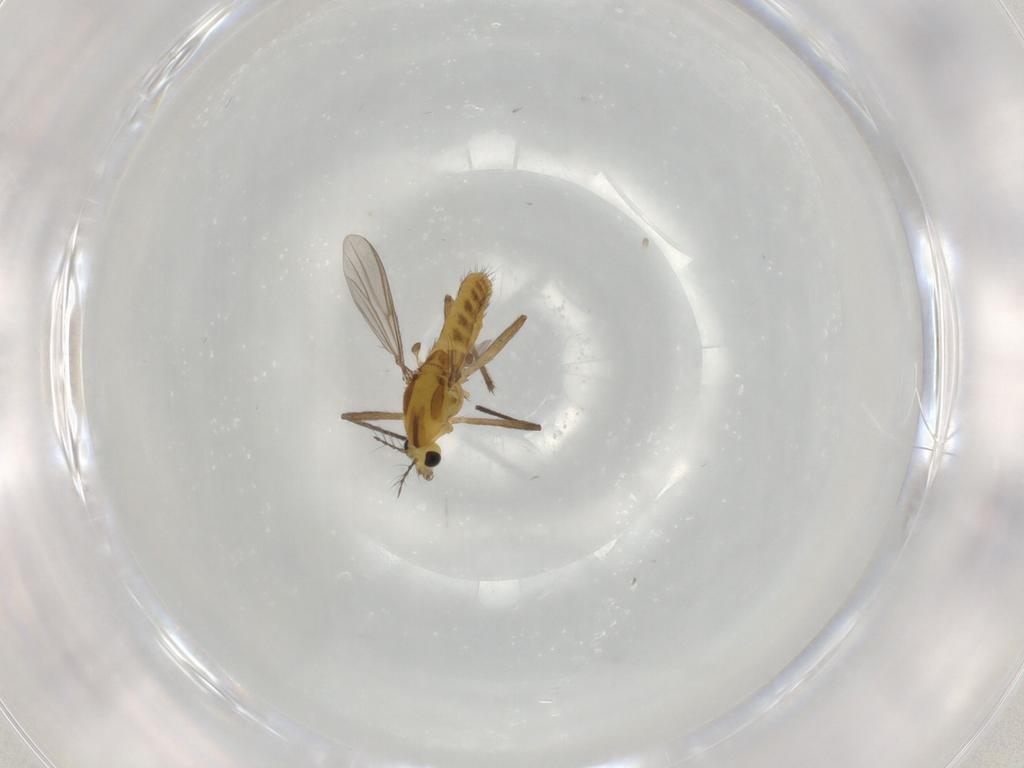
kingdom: Animalia
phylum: Arthropoda
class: Insecta
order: Diptera
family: Chironomidae
